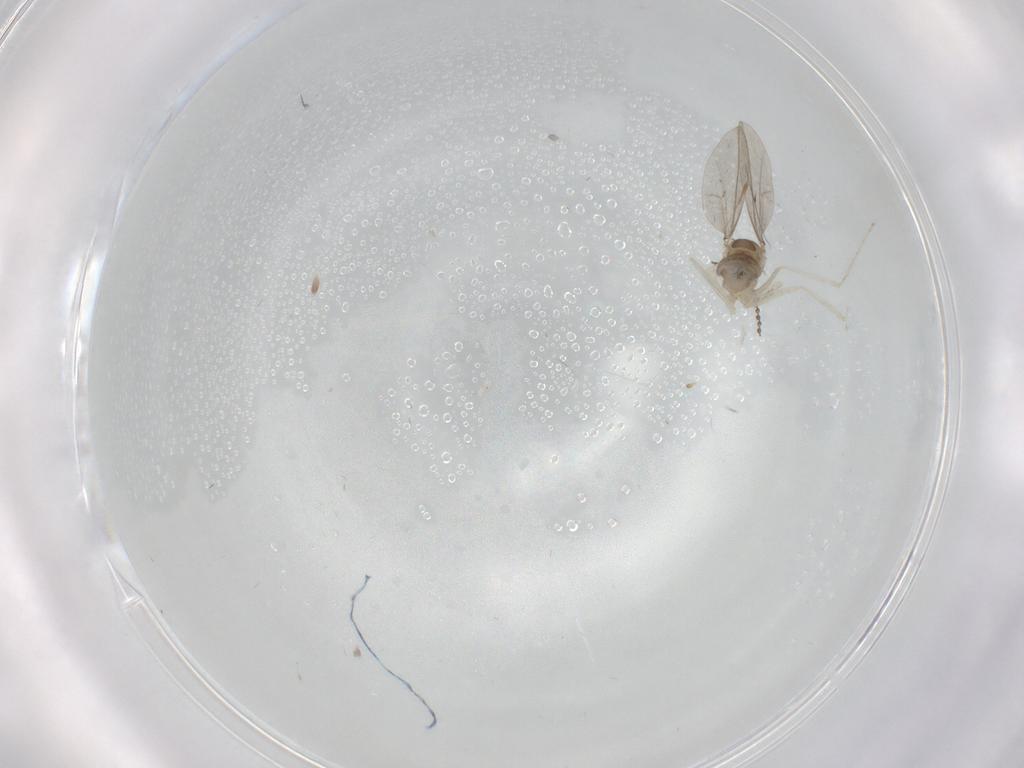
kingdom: Animalia
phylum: Arthropoda
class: Insecta
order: Diptera
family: Cecidomyiidae
